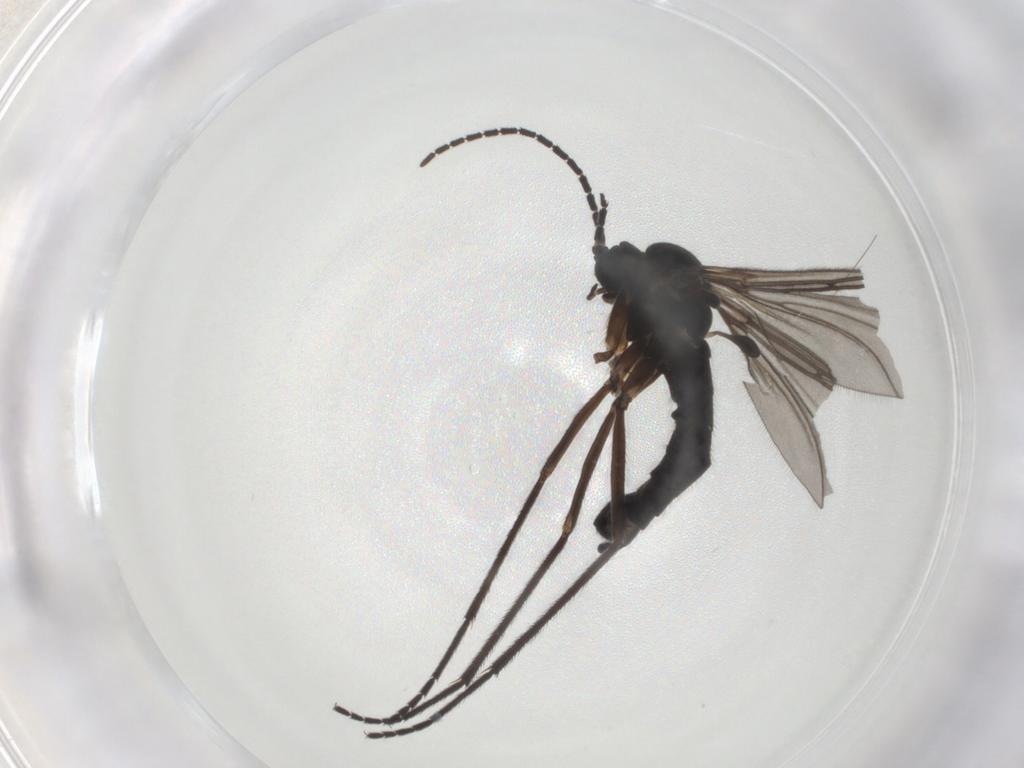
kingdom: Animalia
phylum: Arthropoda
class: Insecta
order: Diptera
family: Sciaridae
